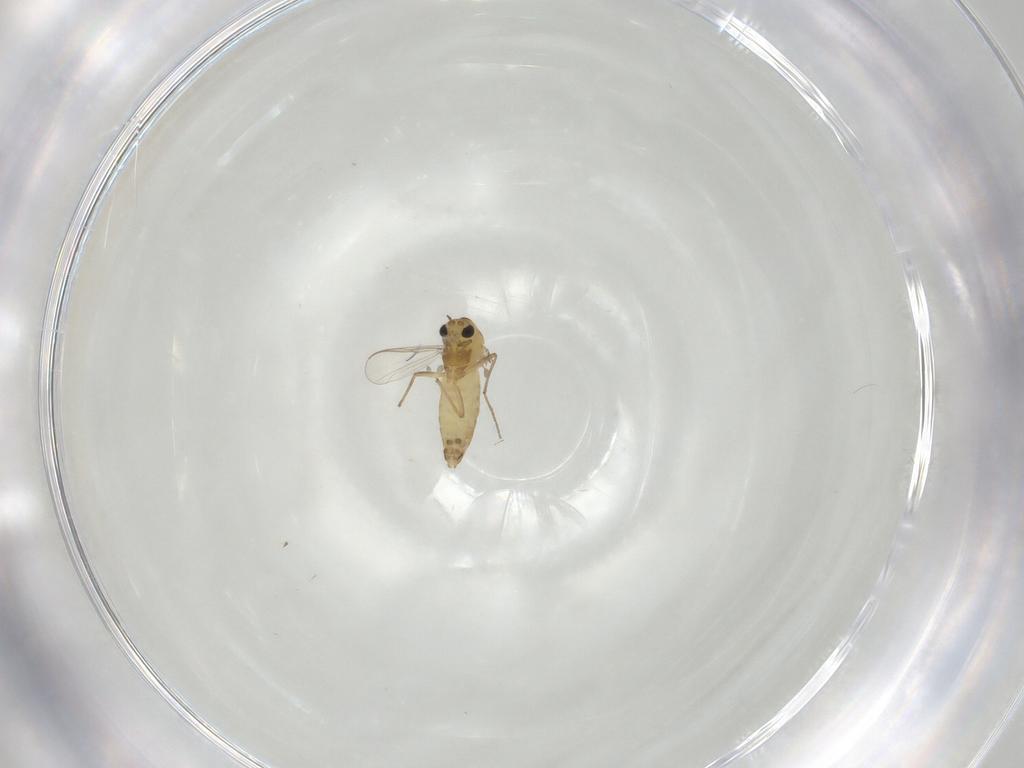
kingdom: Animalia
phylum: Arthropoda
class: Insecta
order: Diptera
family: Chironomidae
